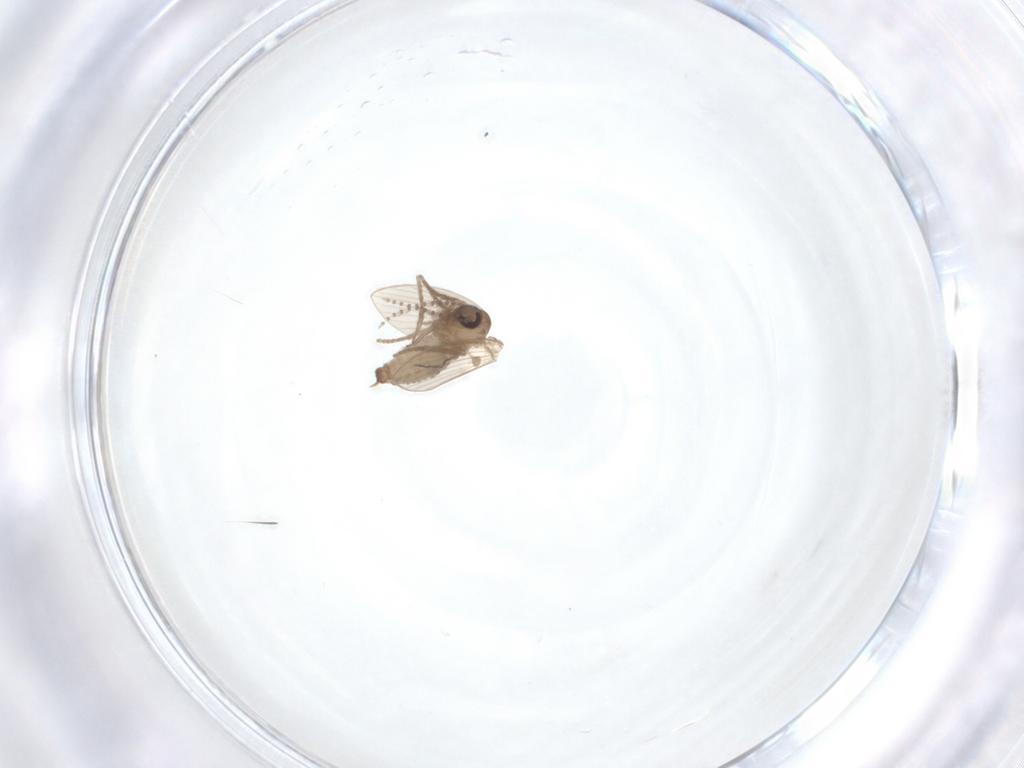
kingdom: Animalia
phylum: Arthropoda
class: Insecta
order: Diptera
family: Psychodidae
